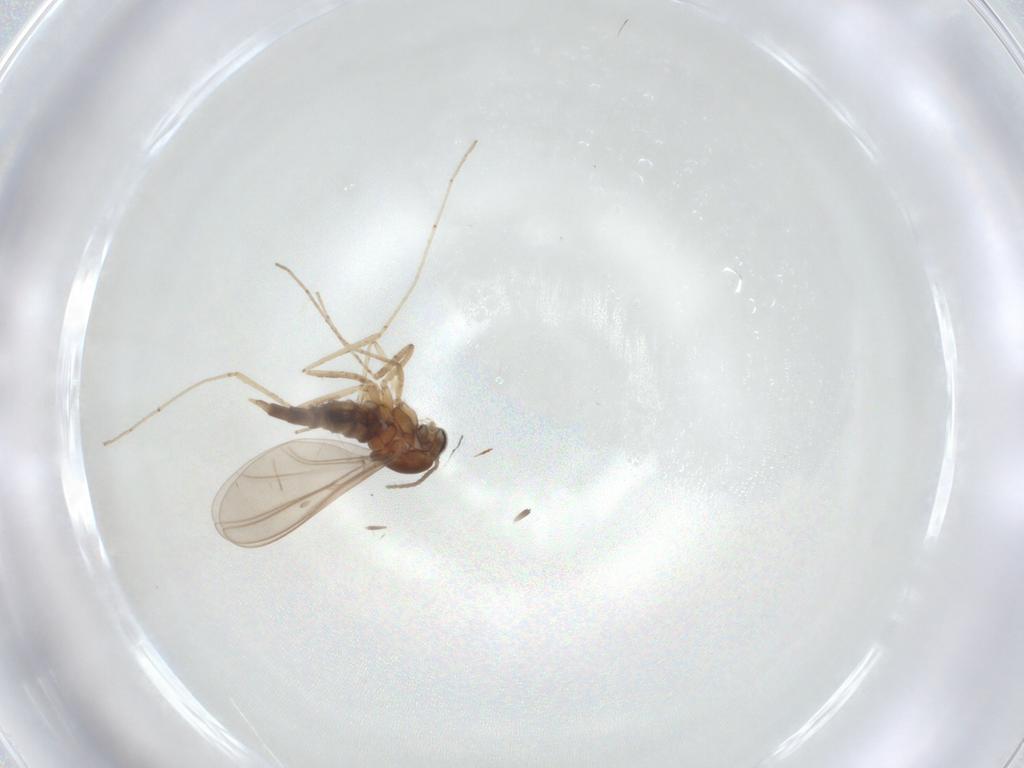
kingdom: Animalia
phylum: Arthropoda
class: Insecta
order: Diptera
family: Cecidomyiidae
